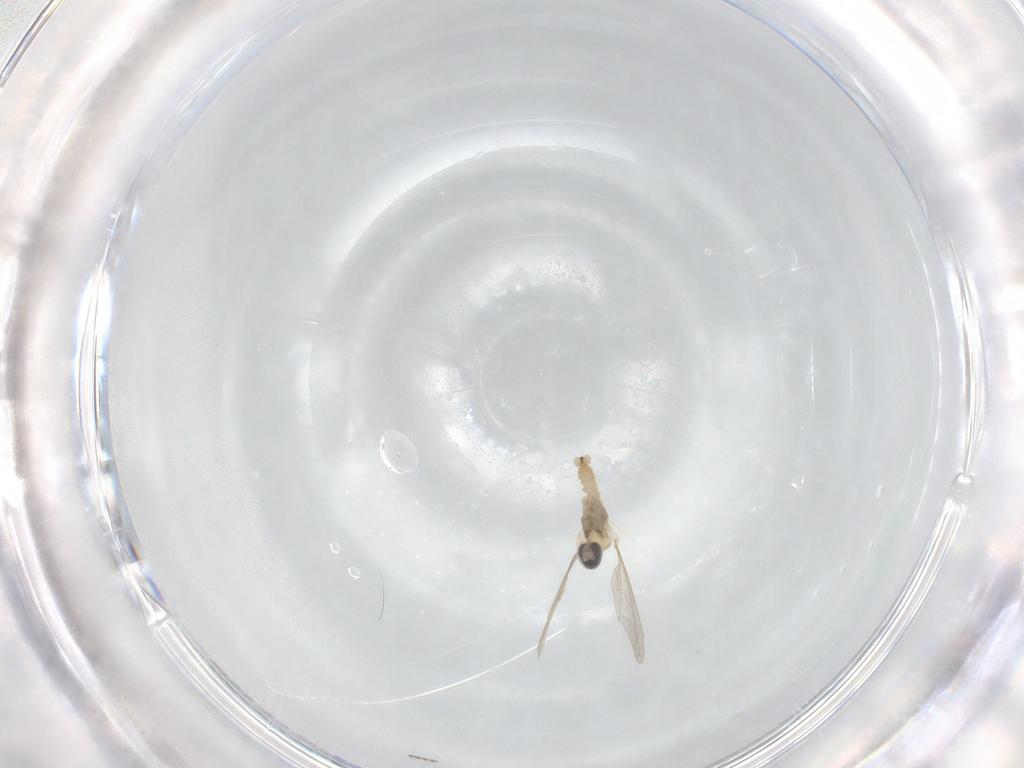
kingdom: Animalia
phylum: Arthropoda
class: Insecta
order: Diptera
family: Cecidomyiidae
